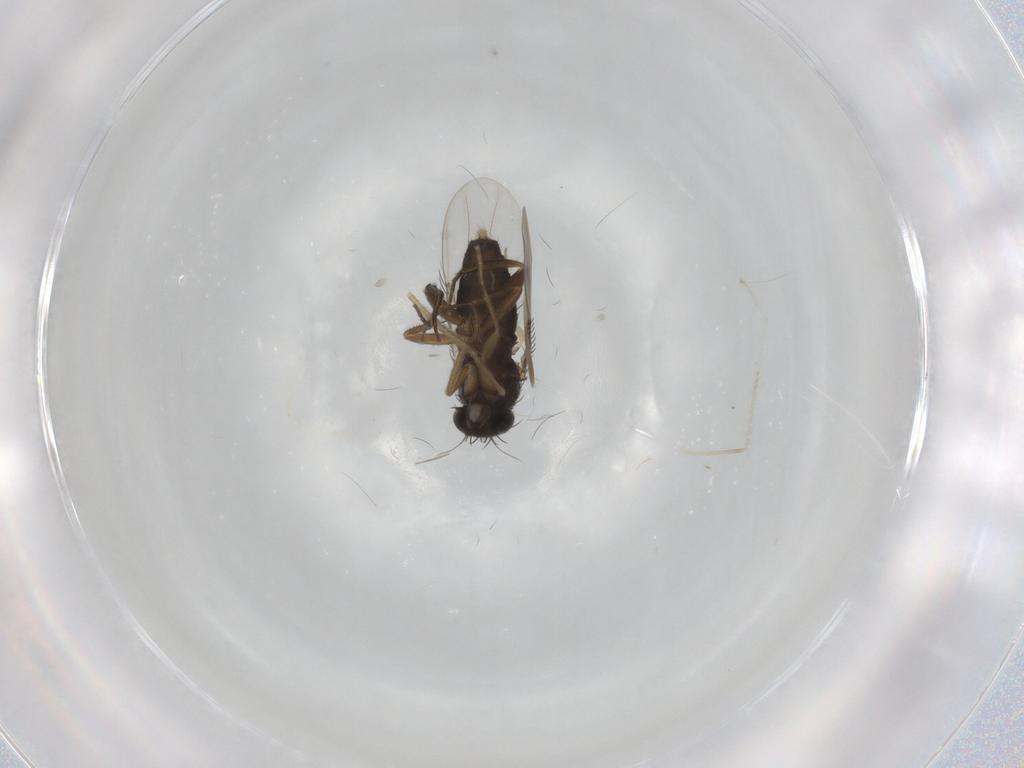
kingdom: Animalia
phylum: Arthropoda
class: Insecta
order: Diptera
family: Phoridae
